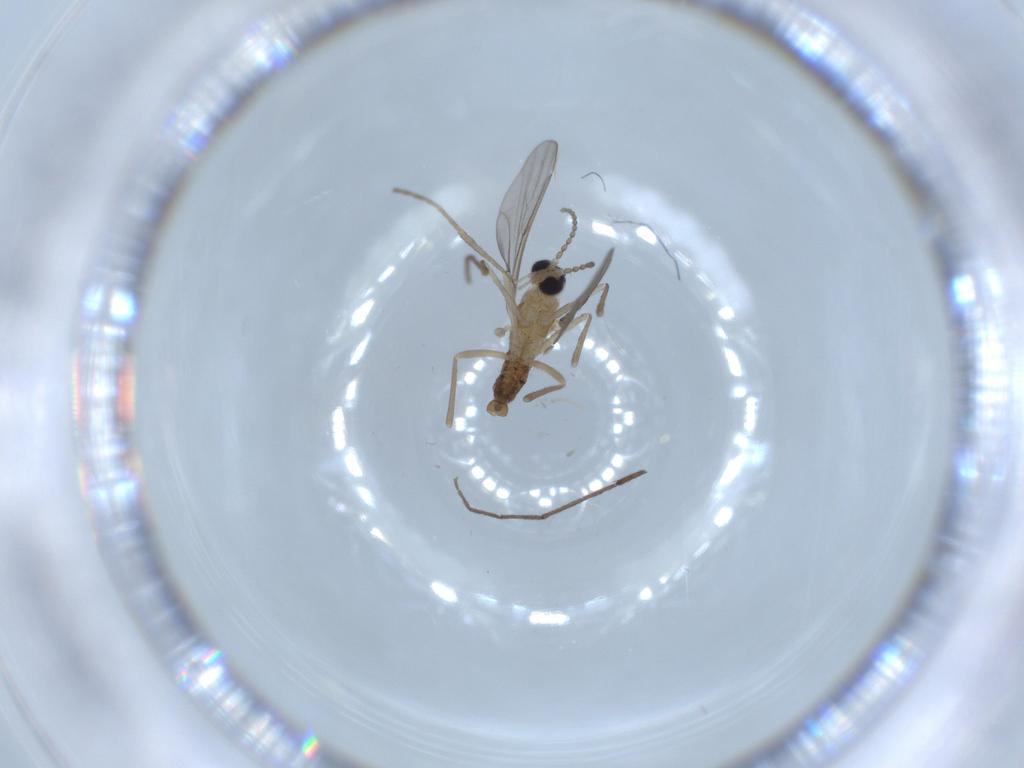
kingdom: Animalia
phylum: Arthropoda
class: Insecta
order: Diptera
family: Chironomidae
